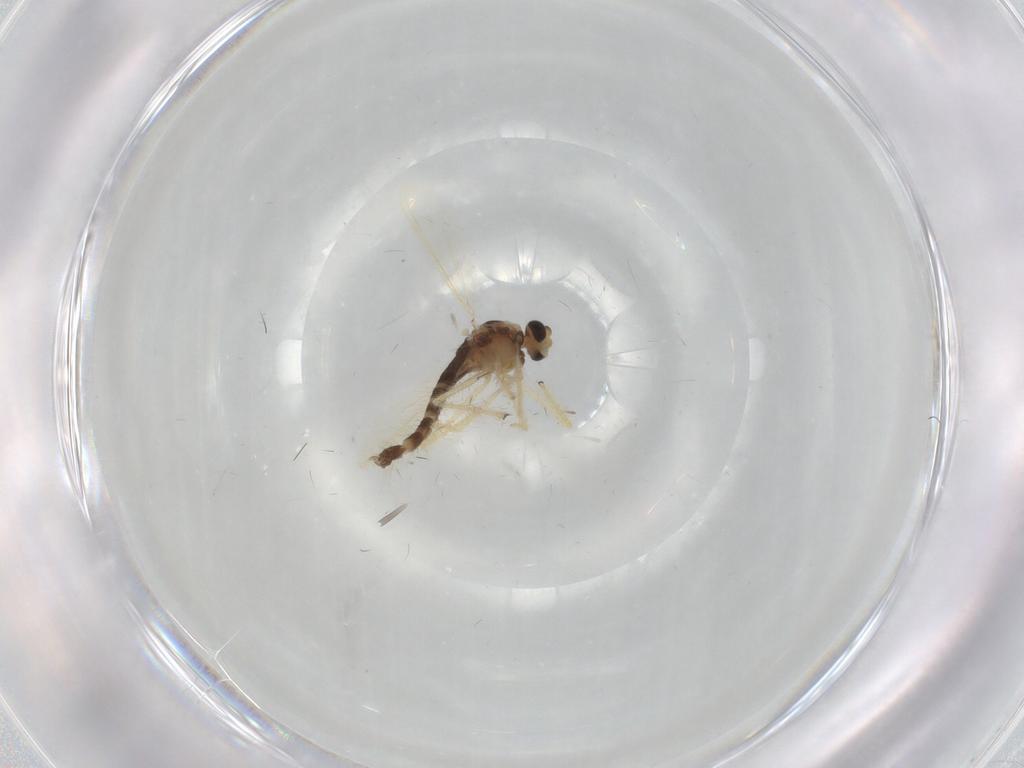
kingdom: Animalia
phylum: Arthropoda
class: Insecta
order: Diptera
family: Chironomidae
